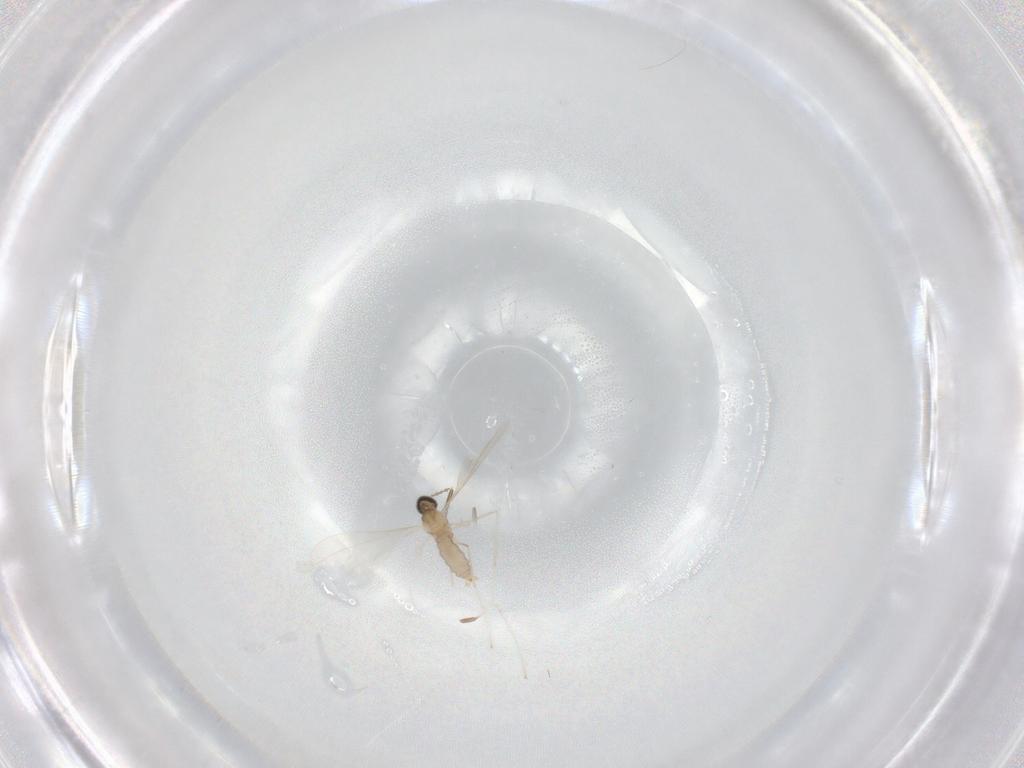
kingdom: Animalia
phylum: Arthropoda
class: Insecta
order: Diptera
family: Cecidomyiidae
